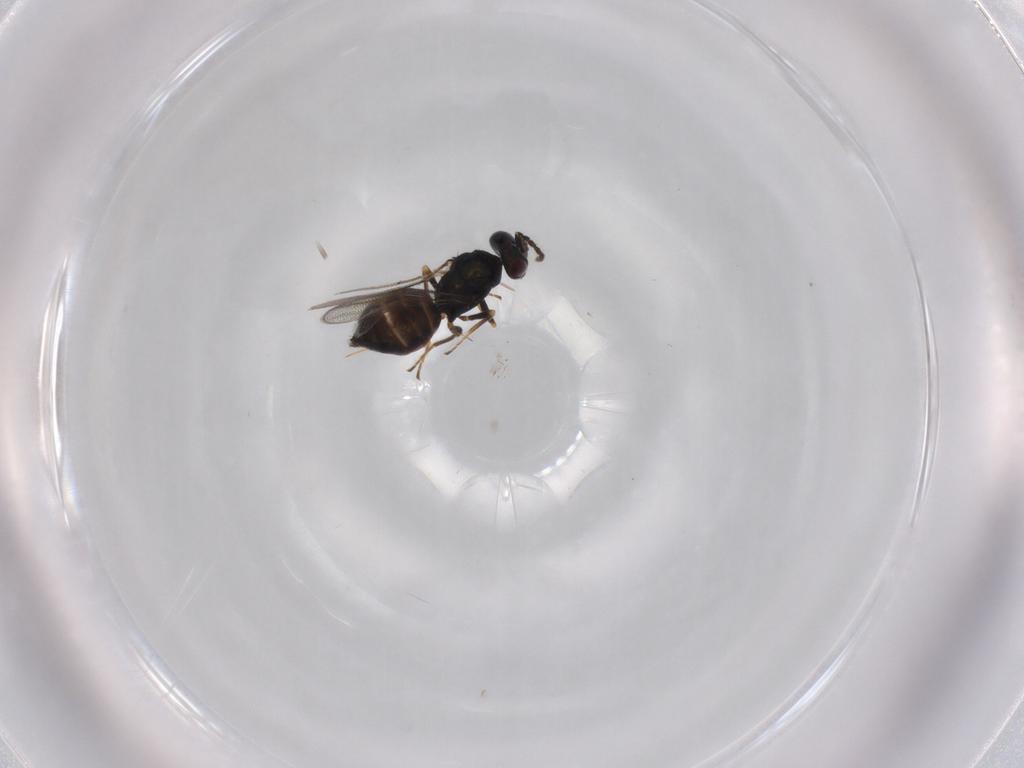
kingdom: Animalia
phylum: Arthropoda
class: Insecta
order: Hymenoptera
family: Eulophidae
